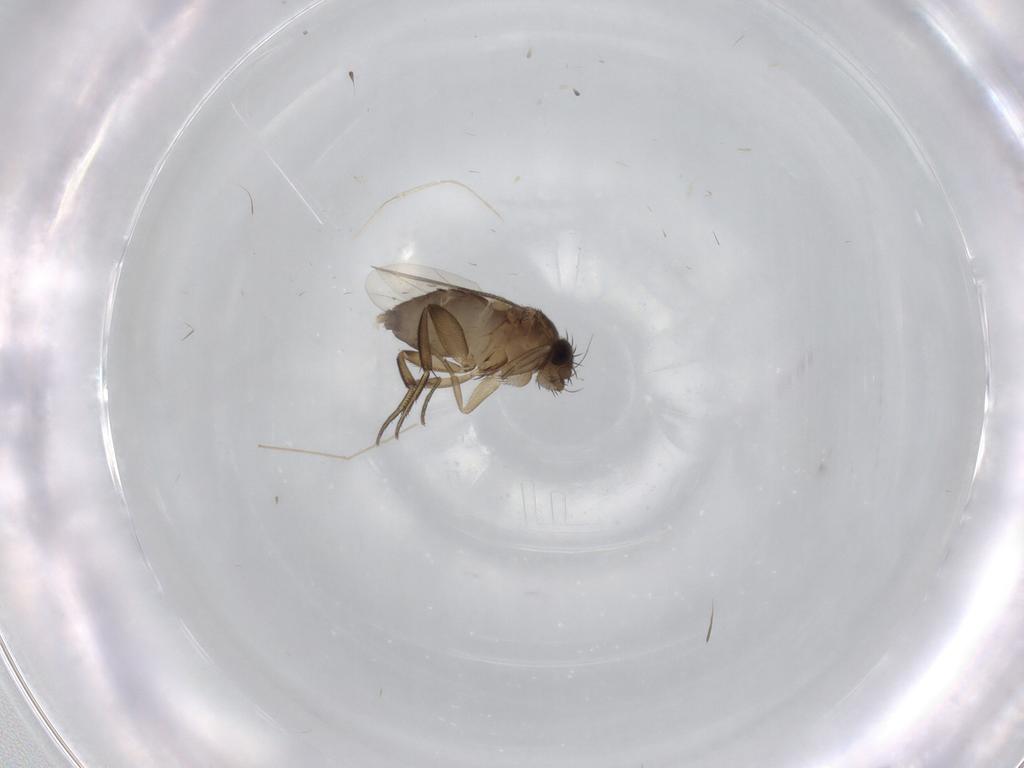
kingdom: Animalia
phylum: Arthropoda
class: Insecta
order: Diptera
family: Phoridae
